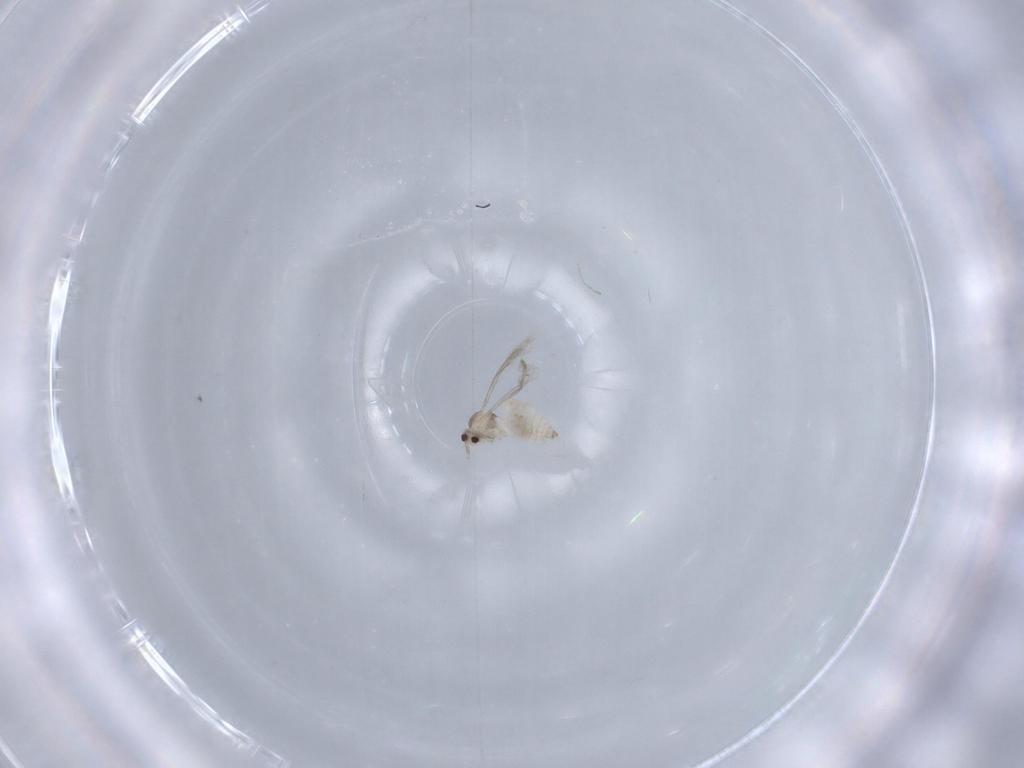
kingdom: Animalia
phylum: Arthropoda
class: Insecta
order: Diptera
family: Cecidomyiidae
